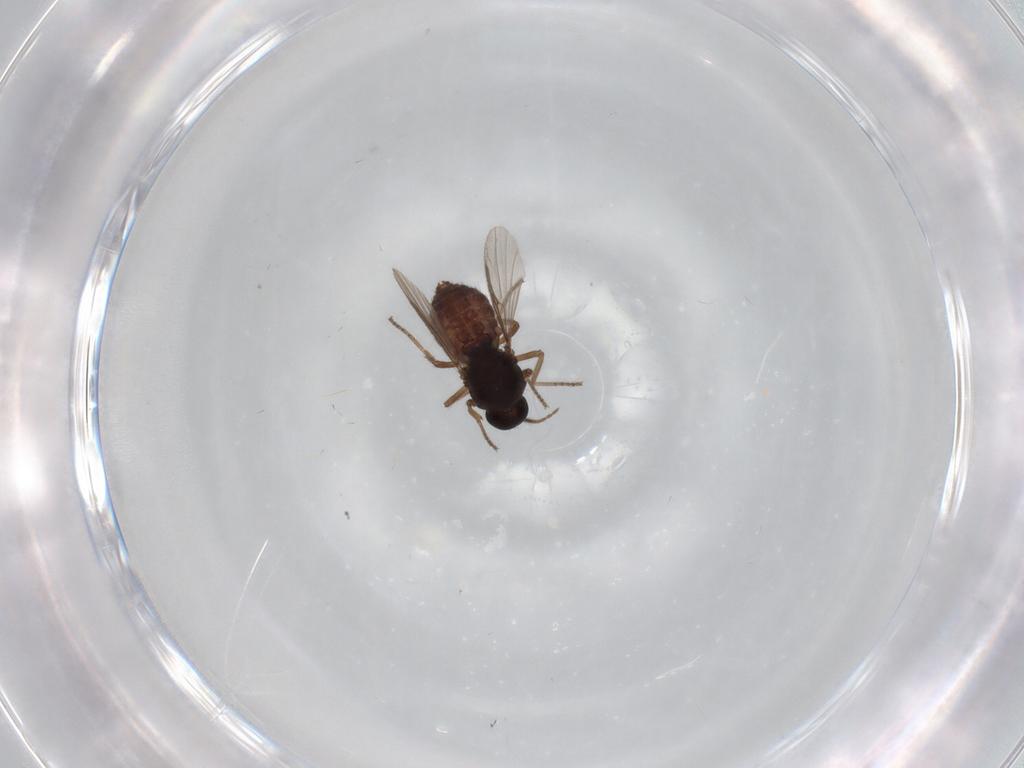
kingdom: Animalia
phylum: Arthropoda
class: Insecta
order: Diptera
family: Ceratopogonidae
